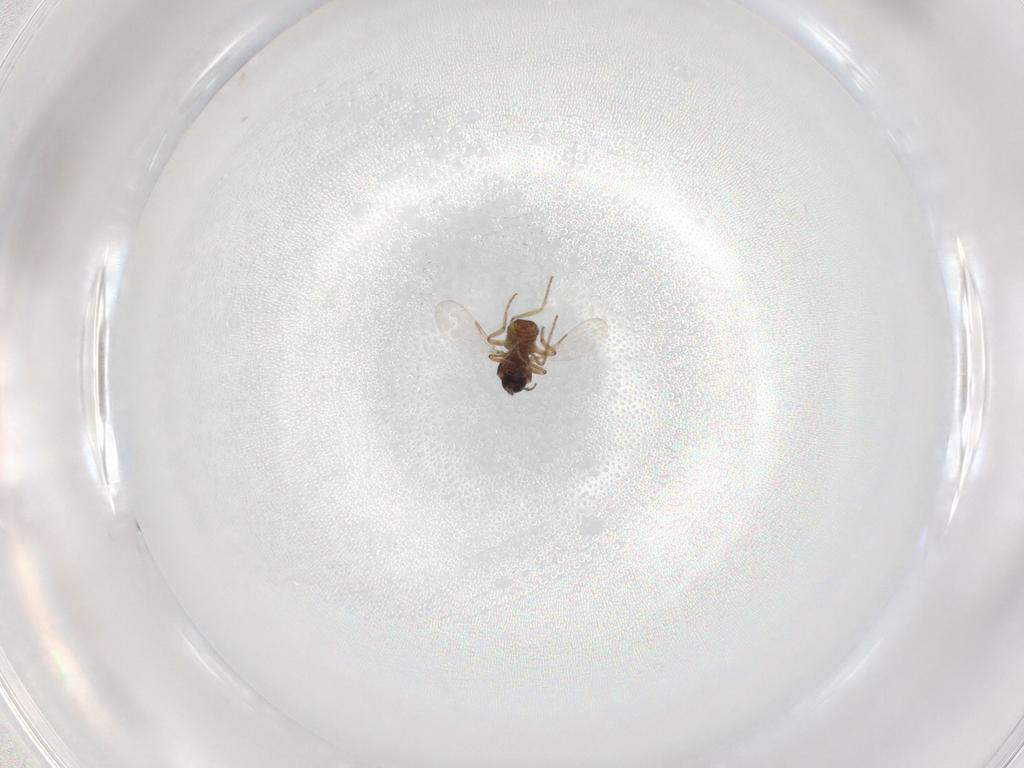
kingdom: Animalia
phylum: Arthropoda
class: Insecta
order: Diptera
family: Ceratopogonidae
